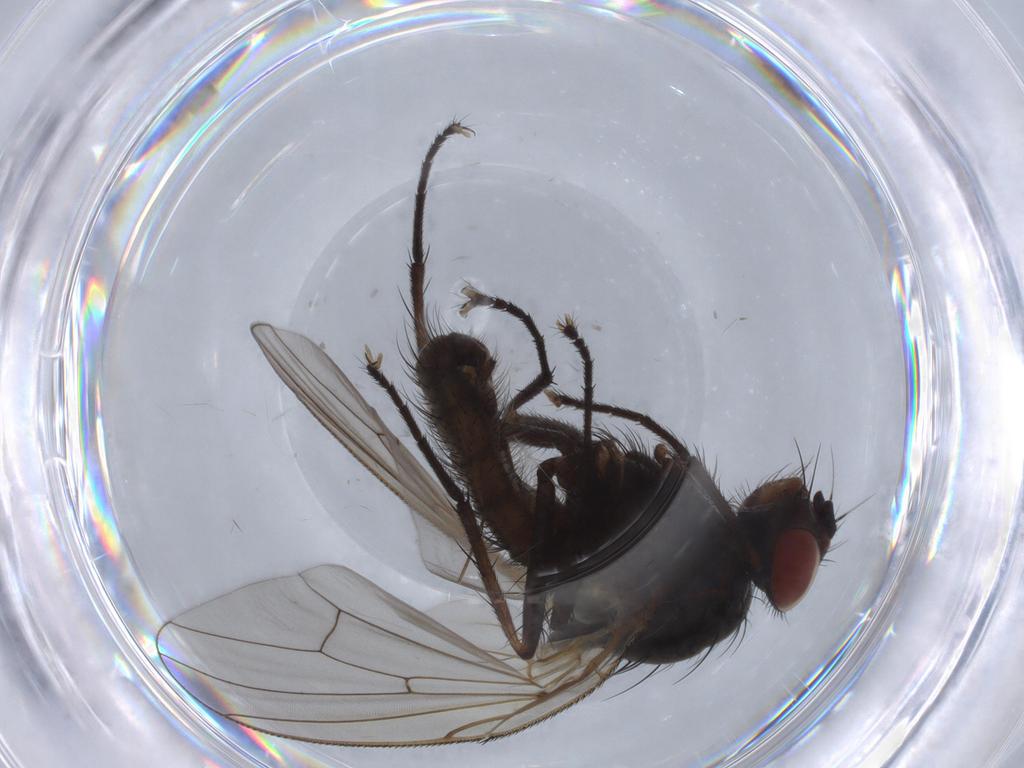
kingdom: Animalia
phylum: Arthropoda
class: Insecta
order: Diptera
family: Anthomyiidae
